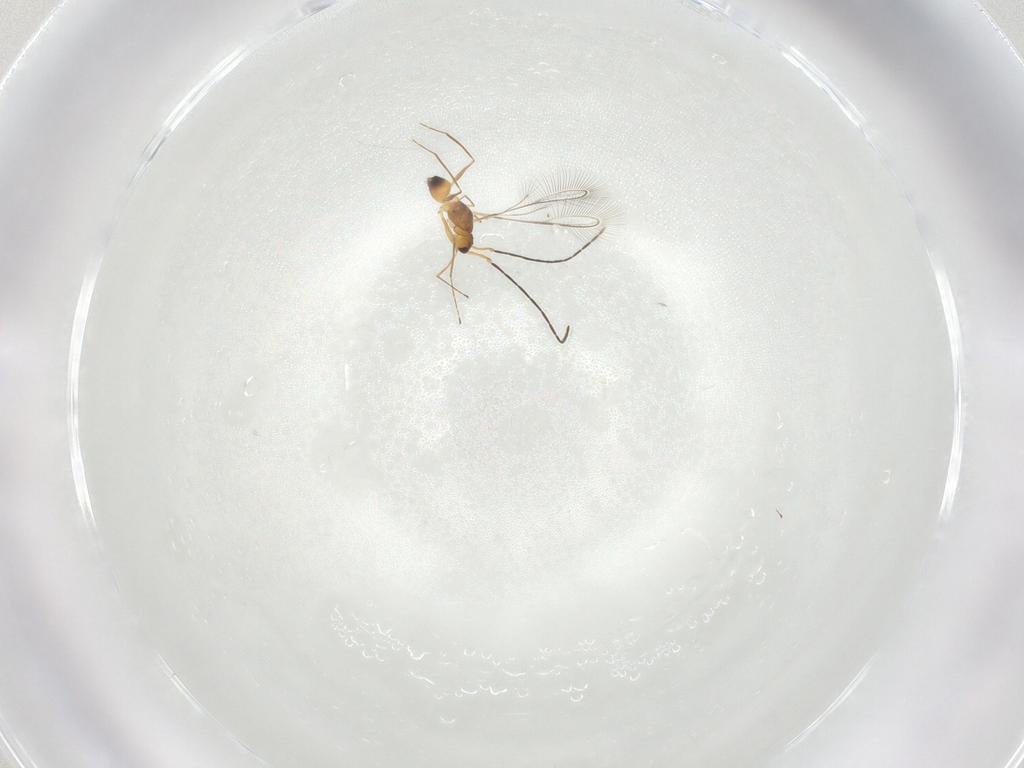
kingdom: Animalia
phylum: Arthropoda
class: Insecta
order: Hymenoptera
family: Mymaridae
